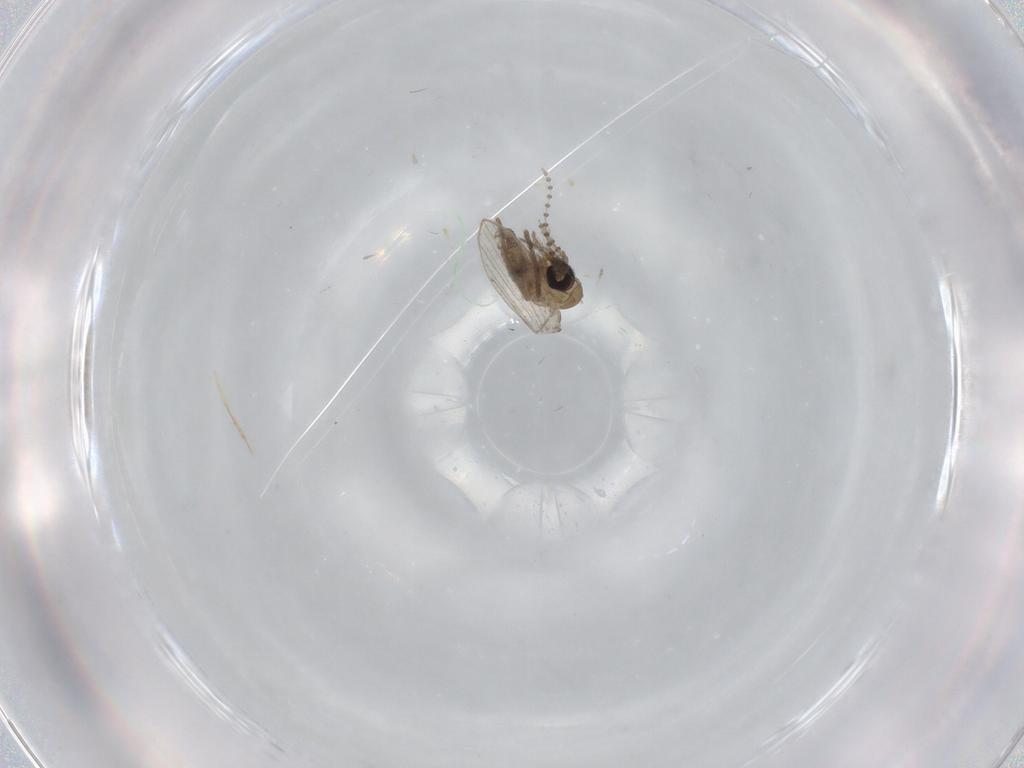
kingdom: Animalia
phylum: Arthropoda
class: Insecta
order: Diptera
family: Psychodidae
